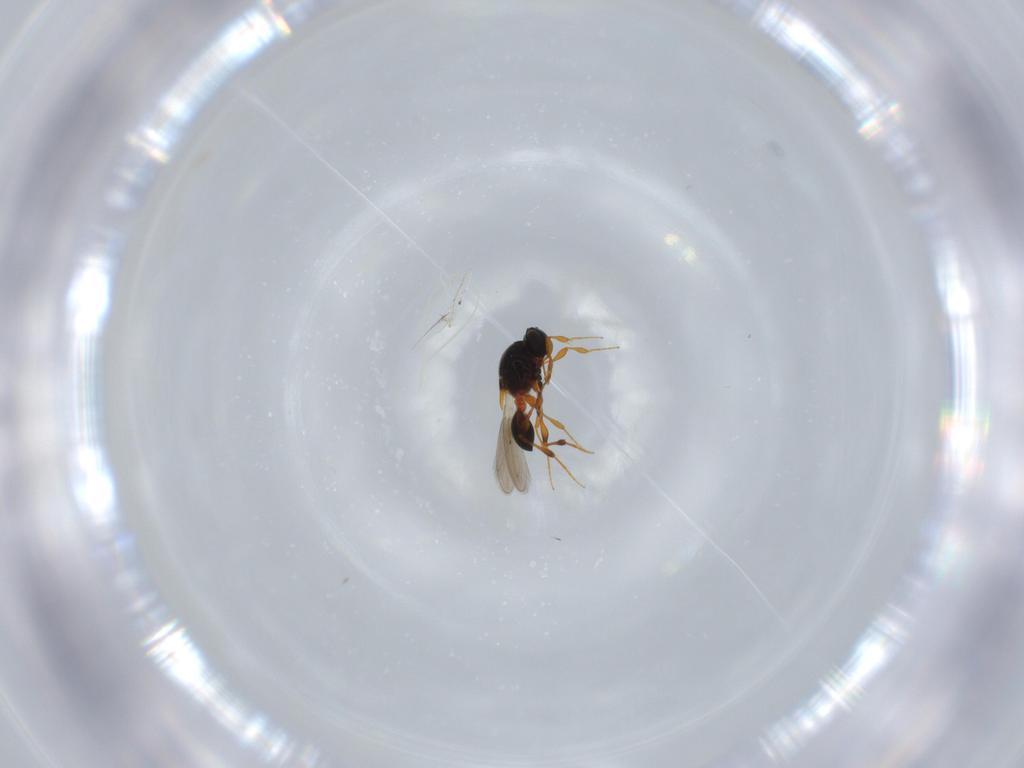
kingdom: Animalia
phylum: Arthropoda
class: Insecta
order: Hymenoptera
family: Platygastridae
